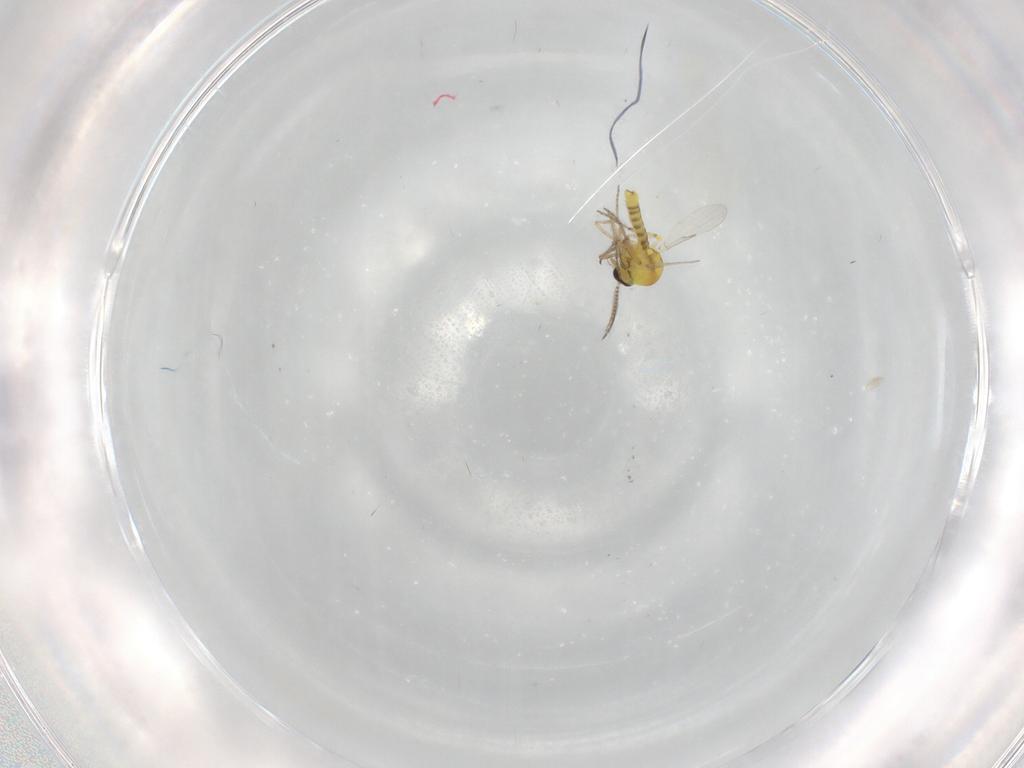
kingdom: Animalia
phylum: Arthropoda
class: Insecta
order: Diptera
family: Ceratopogonidae
